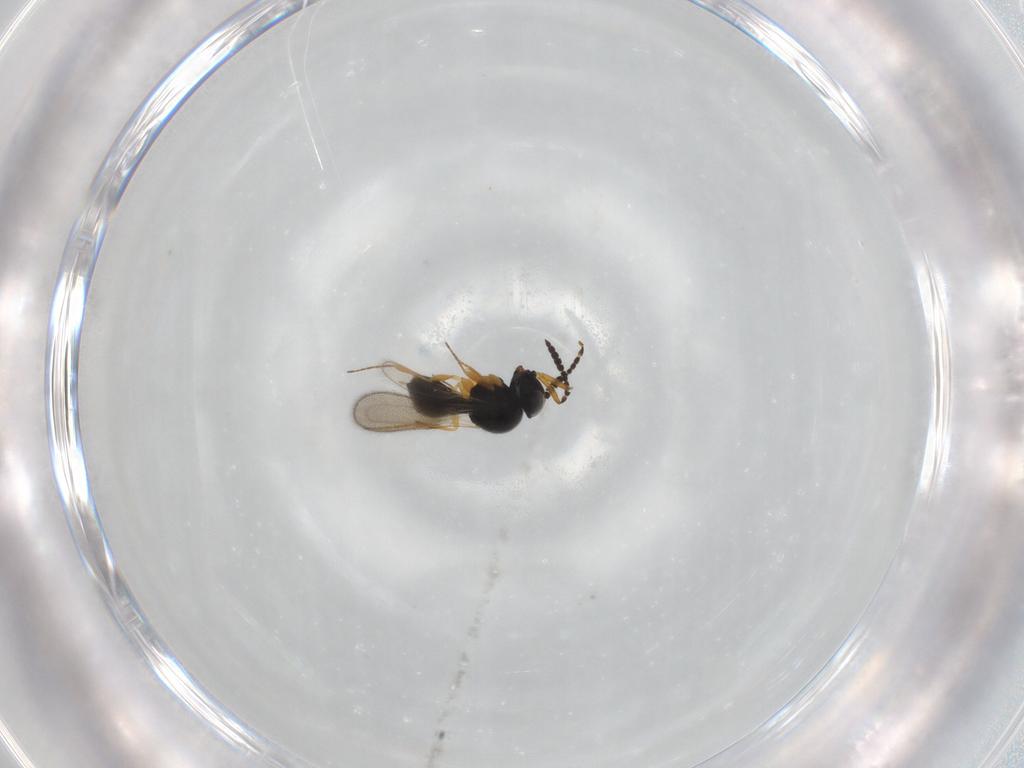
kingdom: Animalia
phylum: Arthropoda
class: Insecta
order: Hymenoptera
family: Scelionidae
